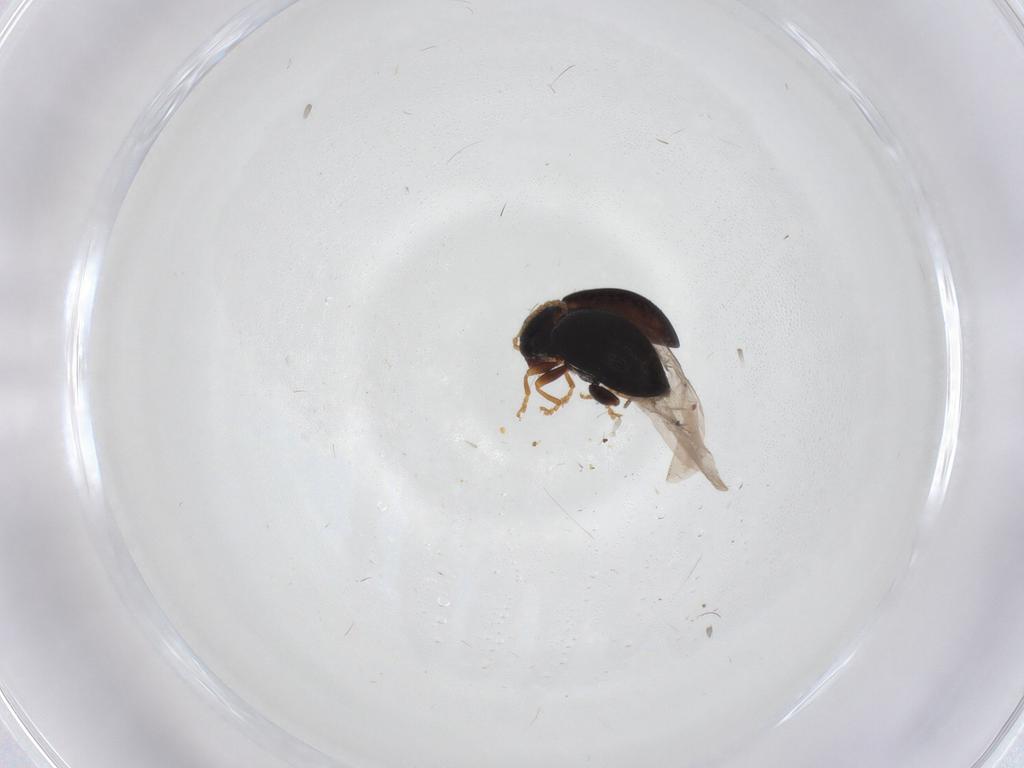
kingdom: Animalia
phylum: Arthropoda
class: Insecta
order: Coleoptera
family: Chrysomelidae
